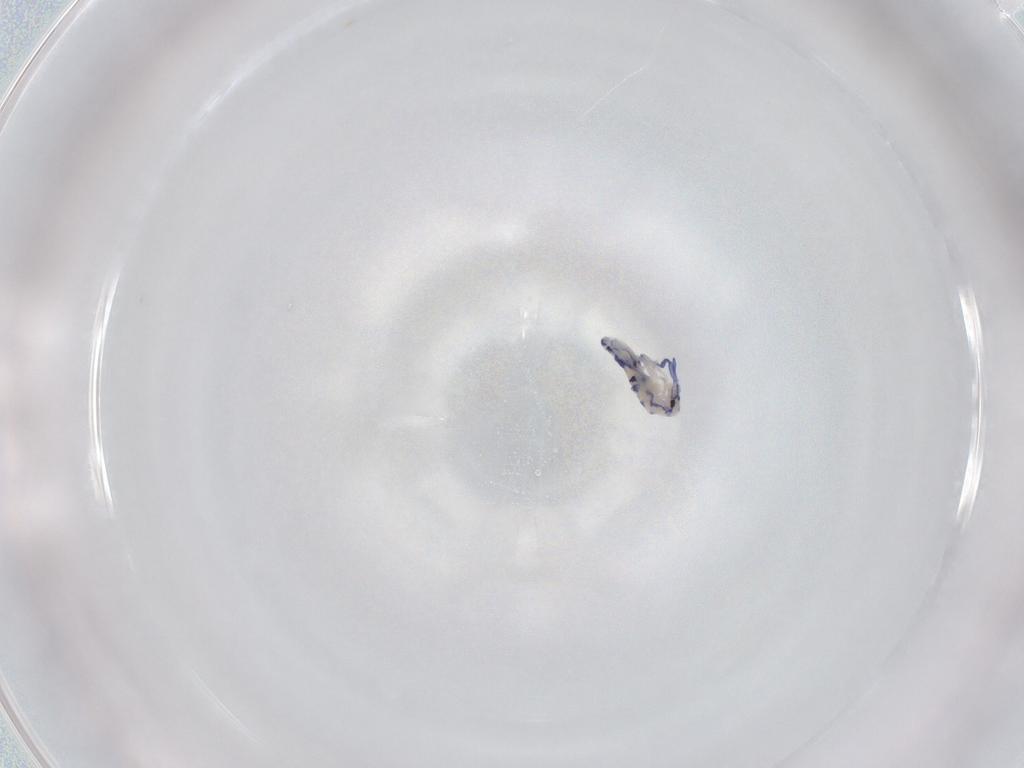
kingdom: Animalia
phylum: Arthropoda
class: Collembola
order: Entomobryomorpha
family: Entomobryidae
